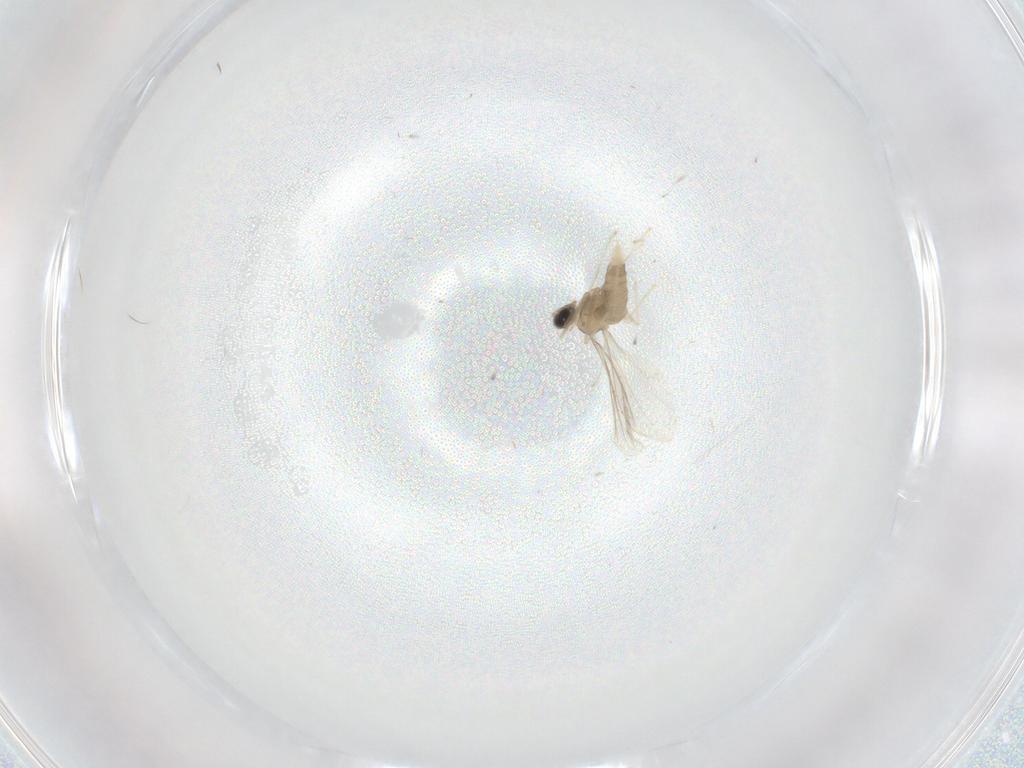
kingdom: Animalia
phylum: Arthropoda
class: Insecta
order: Diptera
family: Cecidomyiidae
